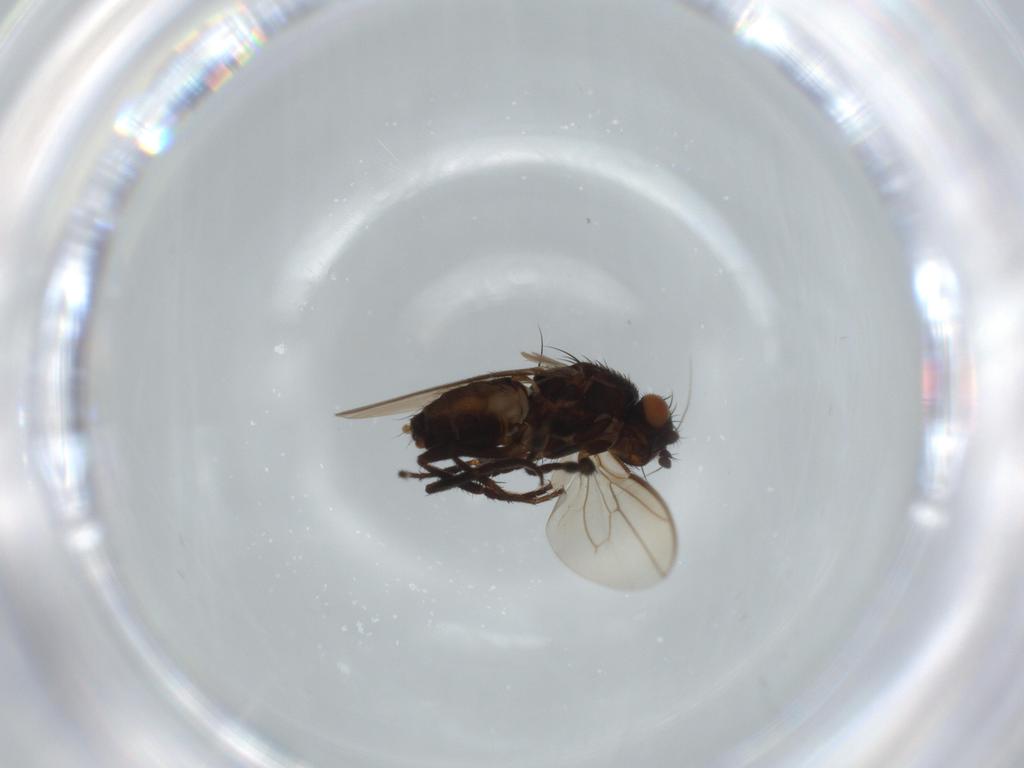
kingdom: Animalia
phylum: Arthropoda
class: Insecta
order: Diptera
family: Sphaeroceridae
